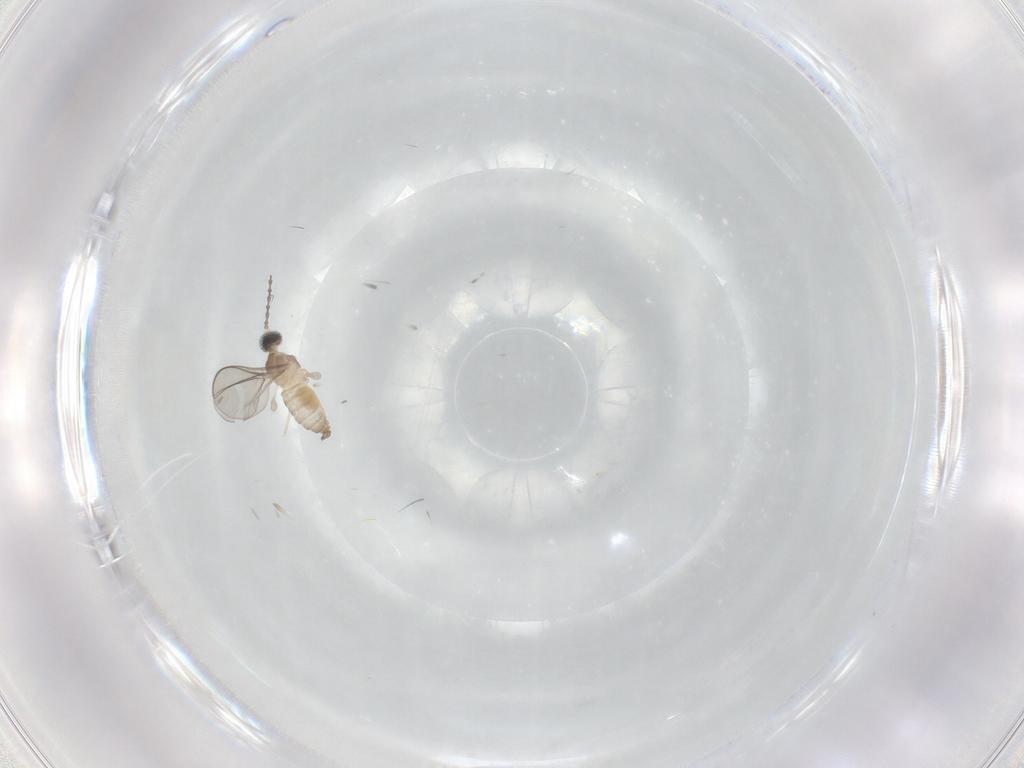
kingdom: Animalia
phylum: Arthropoda
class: Insecta
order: Diptera
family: Cecidomyiidae
